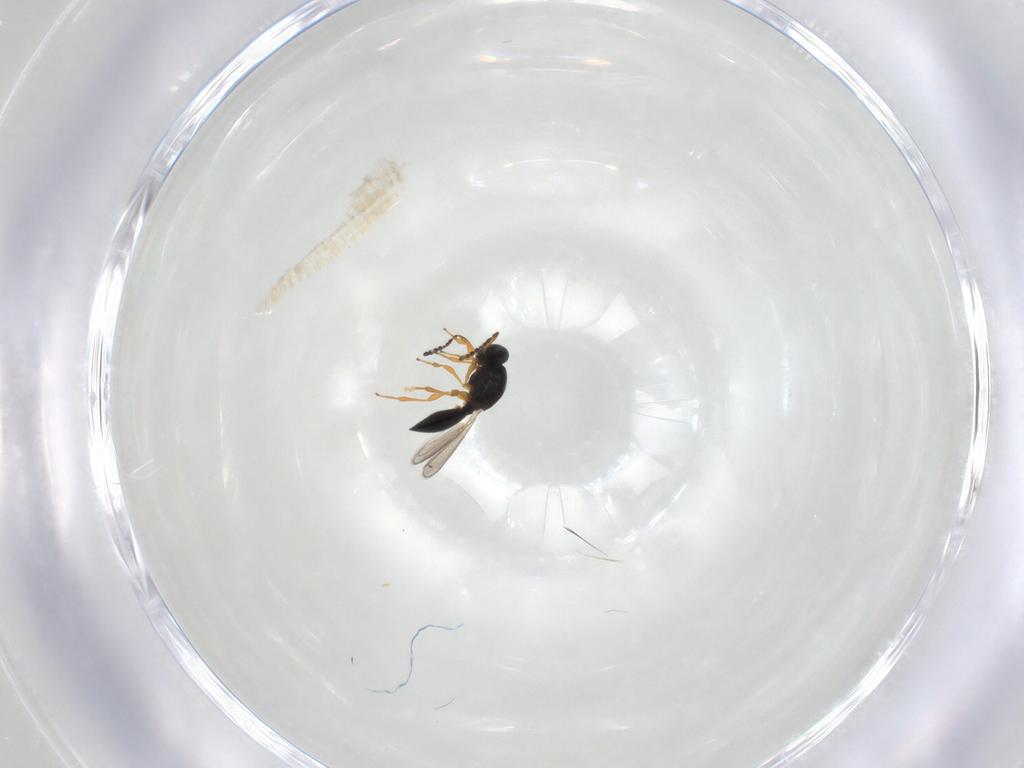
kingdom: Animalia
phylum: Arthropoda
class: Insecta
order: Hymenoptera
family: Platygastridae
